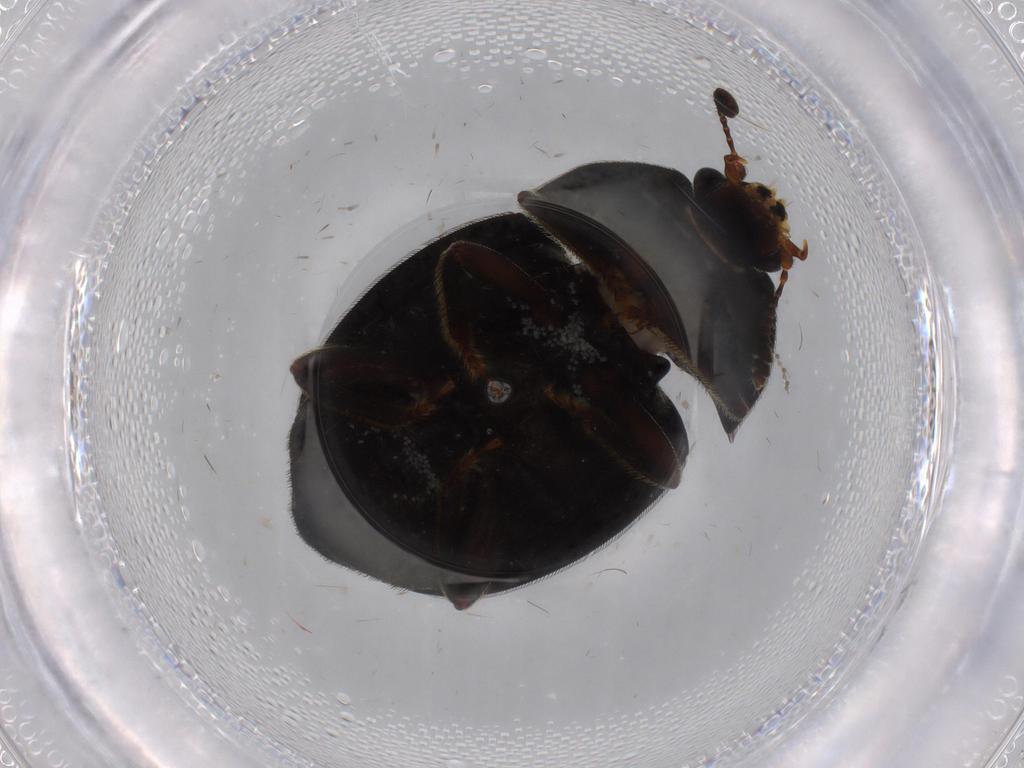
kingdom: Animalia
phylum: Arthropoda
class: Insecta
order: Coleoptera
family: Chrysomelidae
